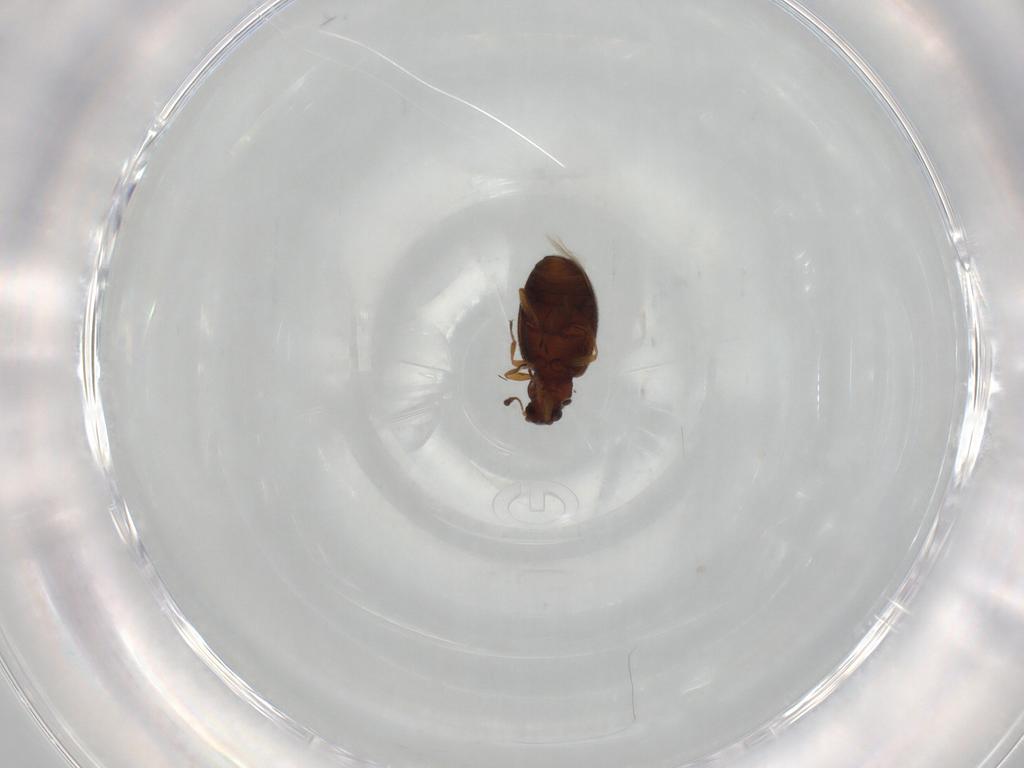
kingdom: Animalia
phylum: Arthropoda
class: Insecta
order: Coleoptera
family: Latridiidae
